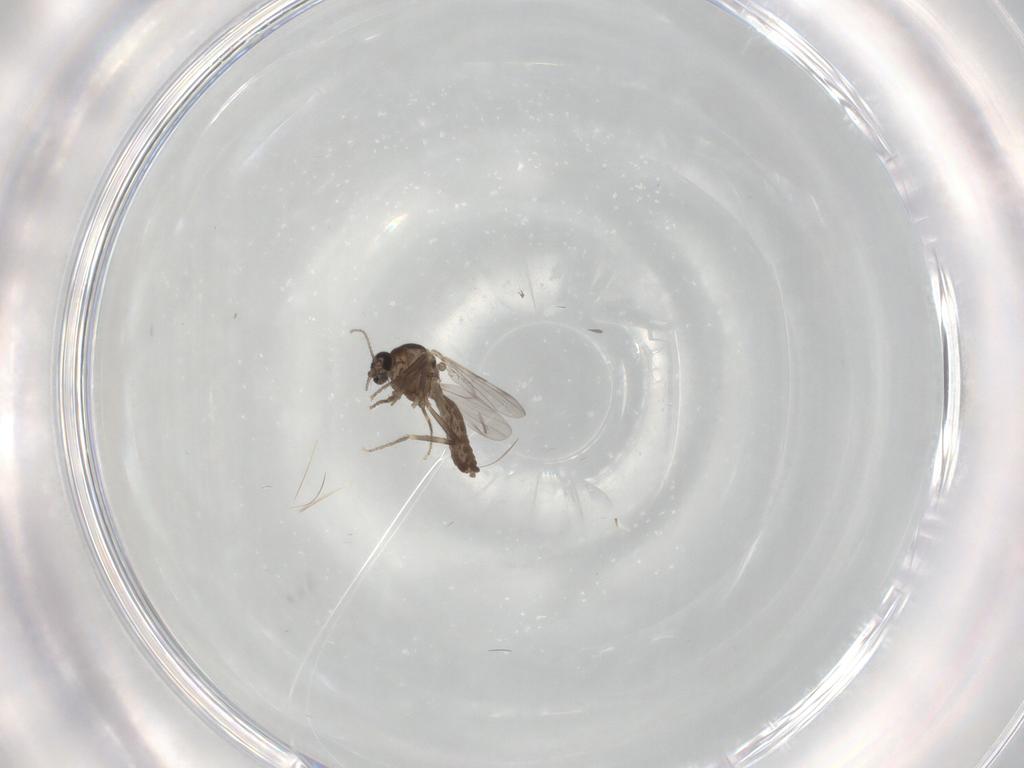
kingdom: Animalia
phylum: Arthropoda
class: Insecta
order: Diptera
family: Ceratopogonidae
